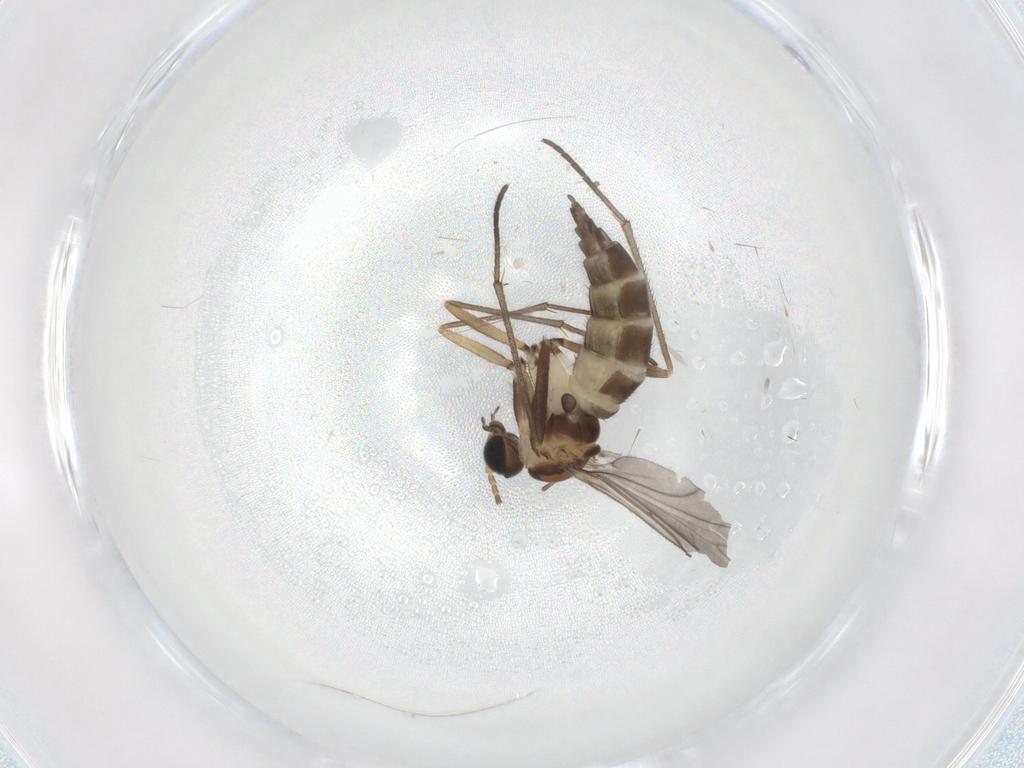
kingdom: Animalia
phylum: Arthropoda
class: Insecta
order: Diptera
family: Sciaridae
